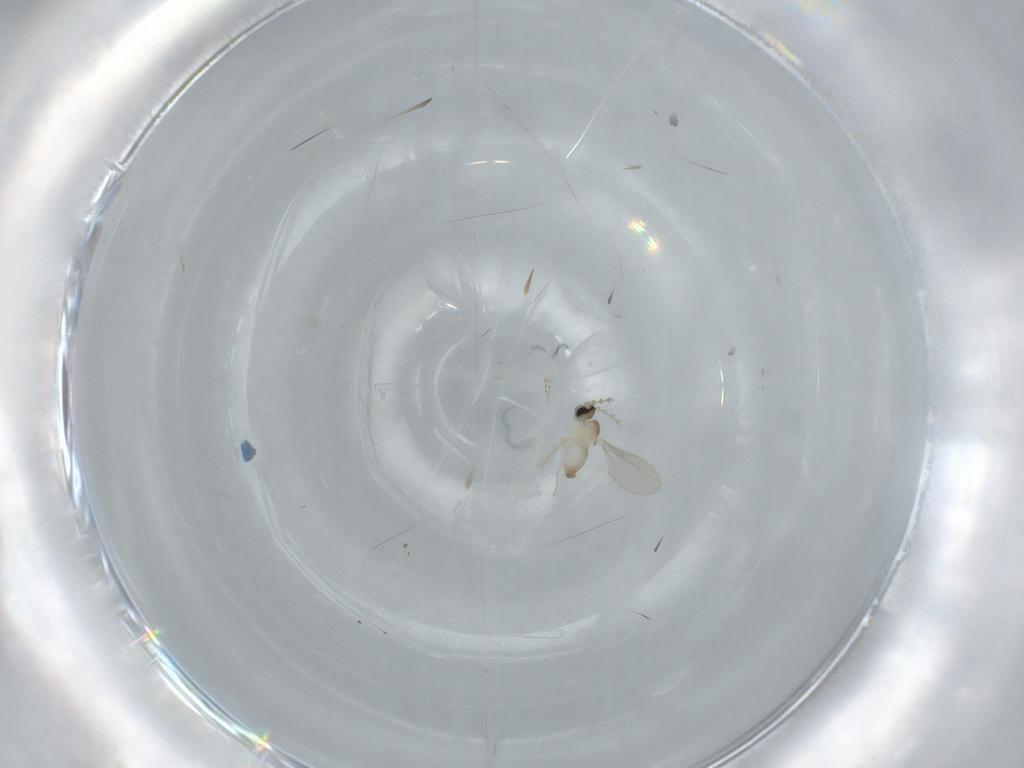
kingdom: Animalia
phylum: Arthropoda
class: Insecta
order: Diptera
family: Cecidomyiidae
